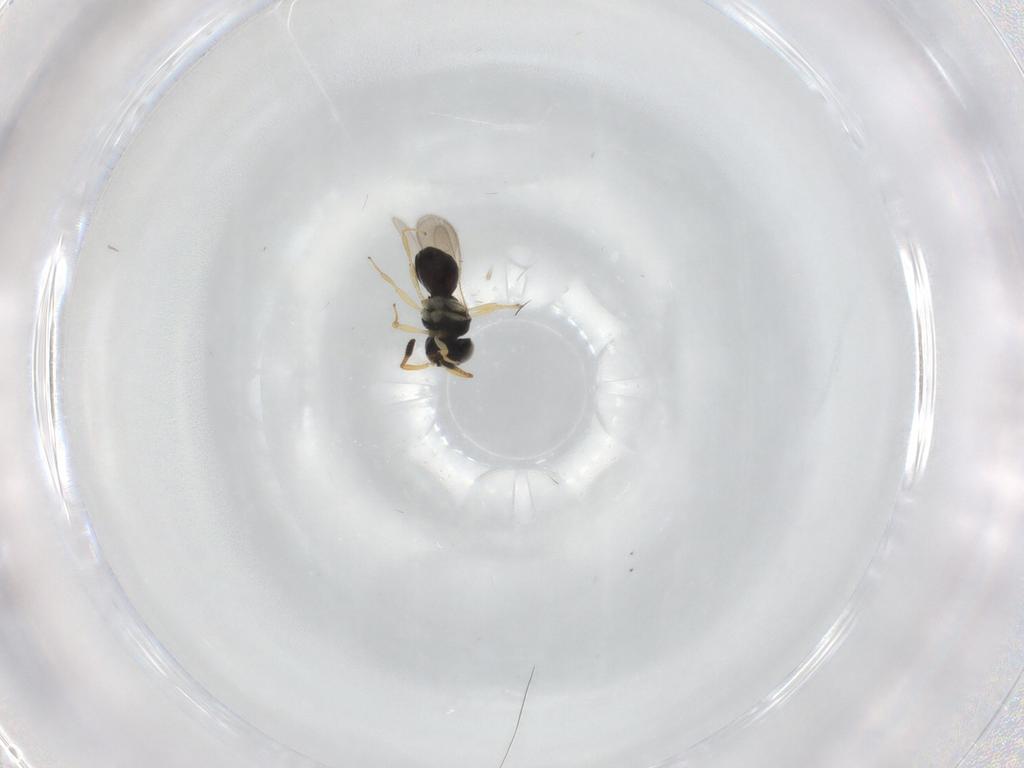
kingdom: Animalia
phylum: Arthropoda
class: Insecta
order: Hymenoptera
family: Scelionidae
